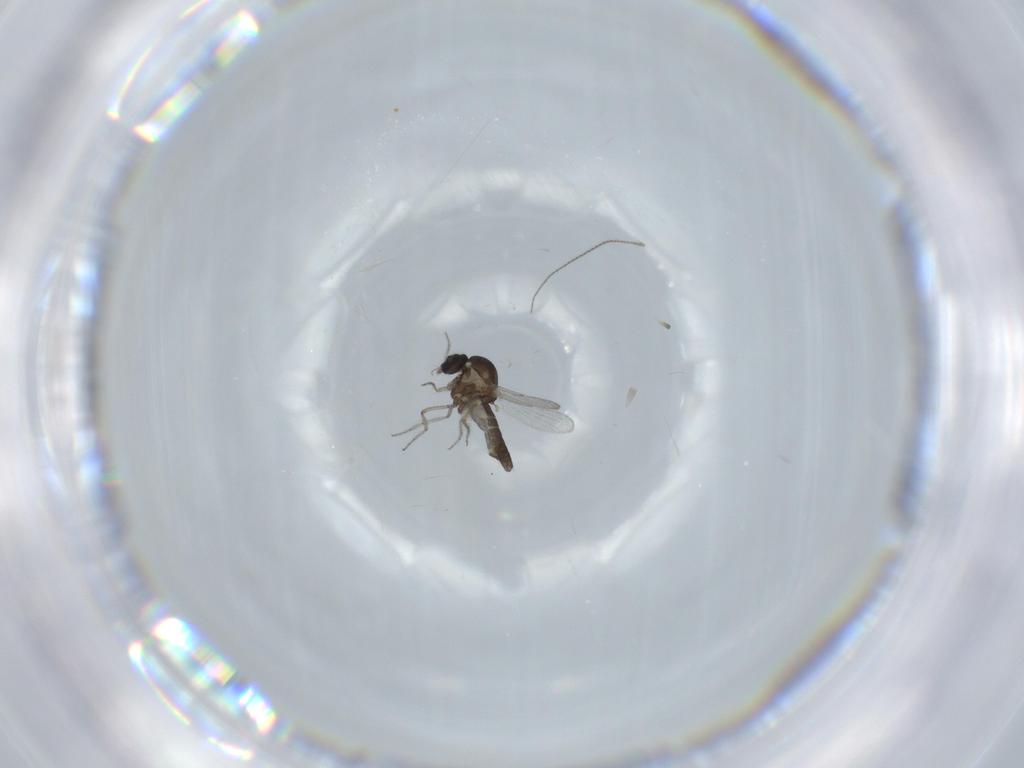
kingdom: Animalia
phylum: Arthropoda
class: Insecta
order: Diptera
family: Ceratopogonidae
